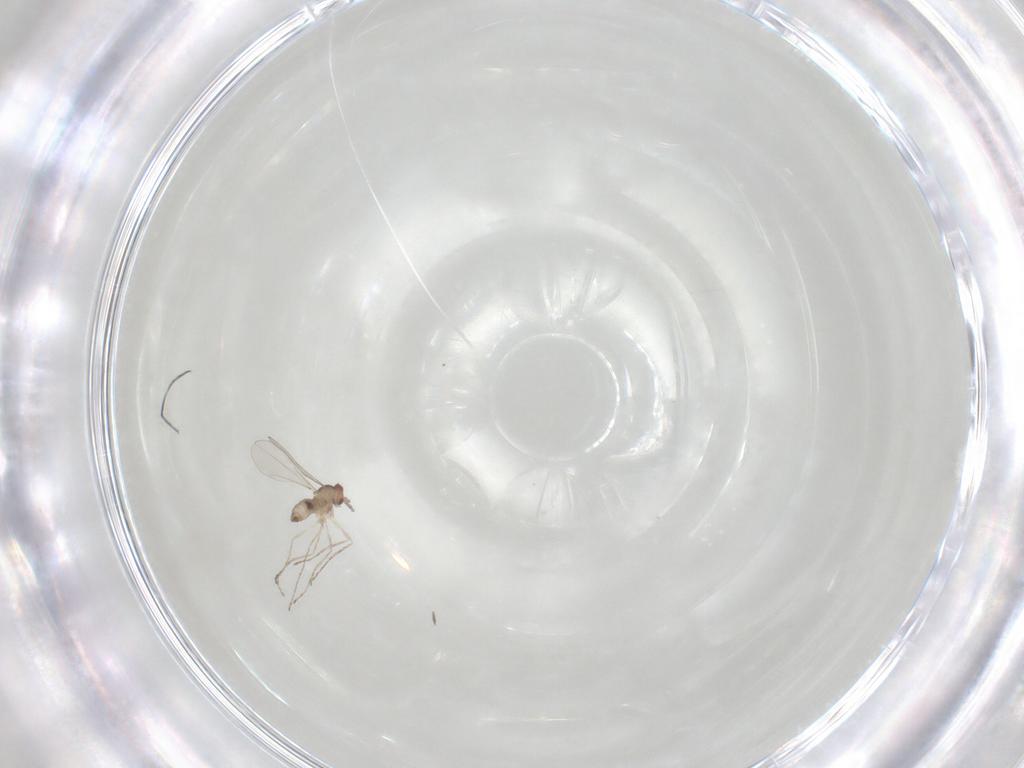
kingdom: Animalia
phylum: Arthropoda
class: Insecta
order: Diptera
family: Cecidomyiidae
